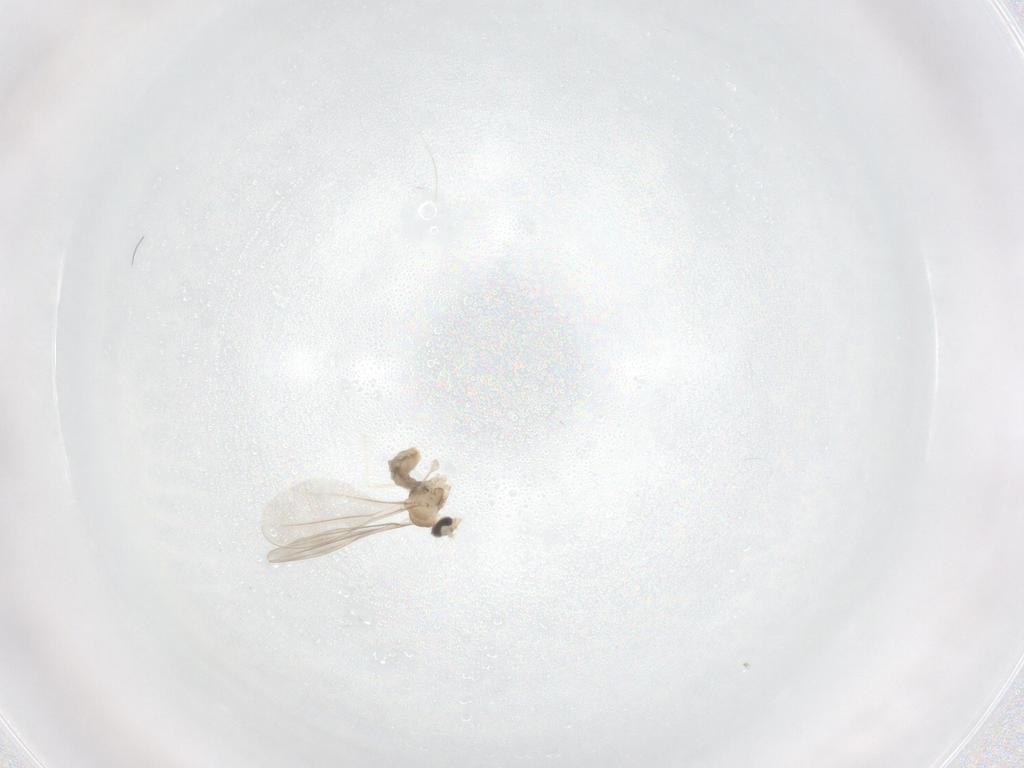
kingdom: Animalia
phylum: Arthropoda
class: Insecta
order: Diptera
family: Cecidomyiidae
